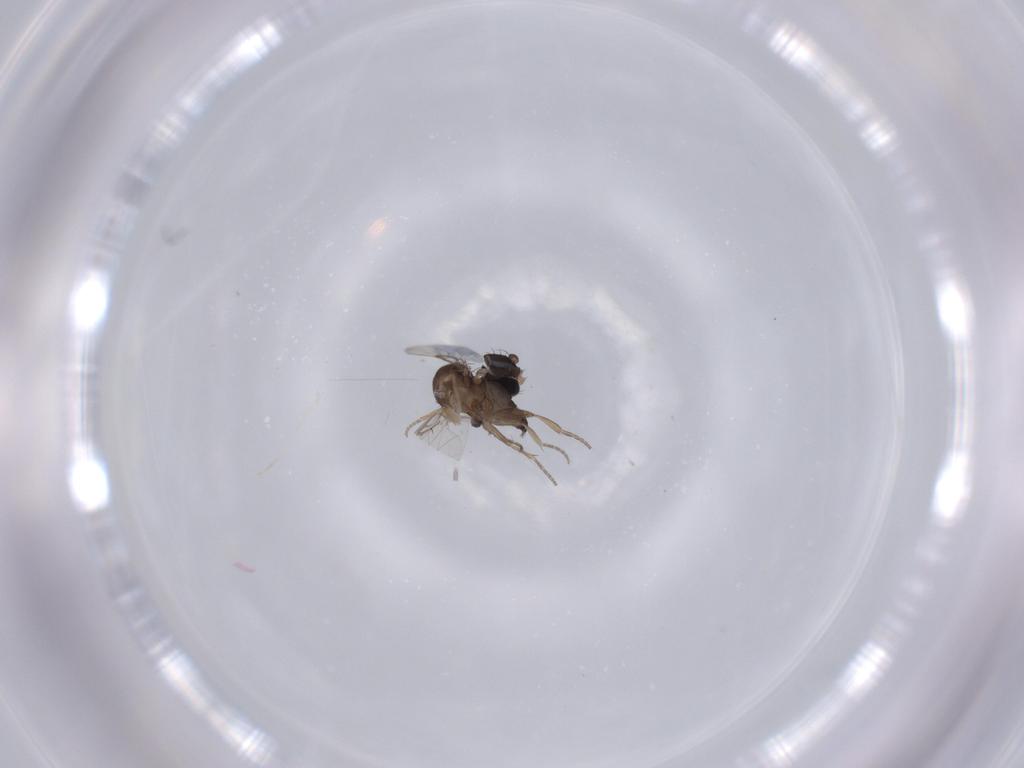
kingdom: Animalia
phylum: Arthropoda
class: Insecta
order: Diptera
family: Phoridae
